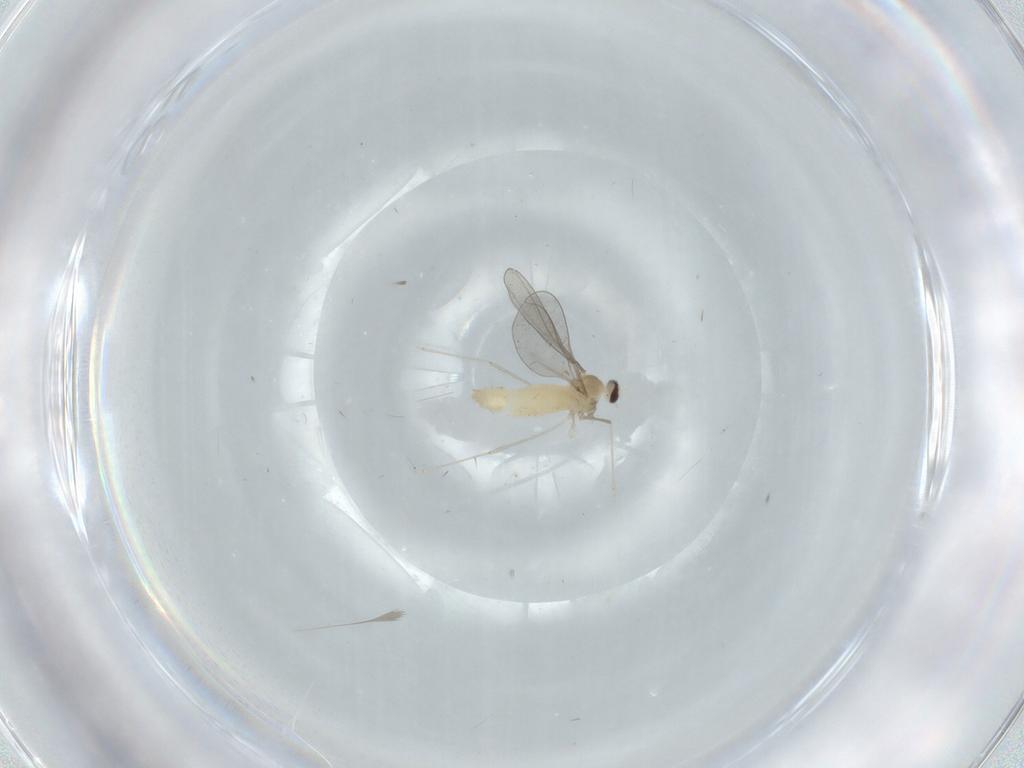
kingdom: Animalia
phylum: Arthropoda
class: Insecta
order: Diptera
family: Cecidomyiidae
